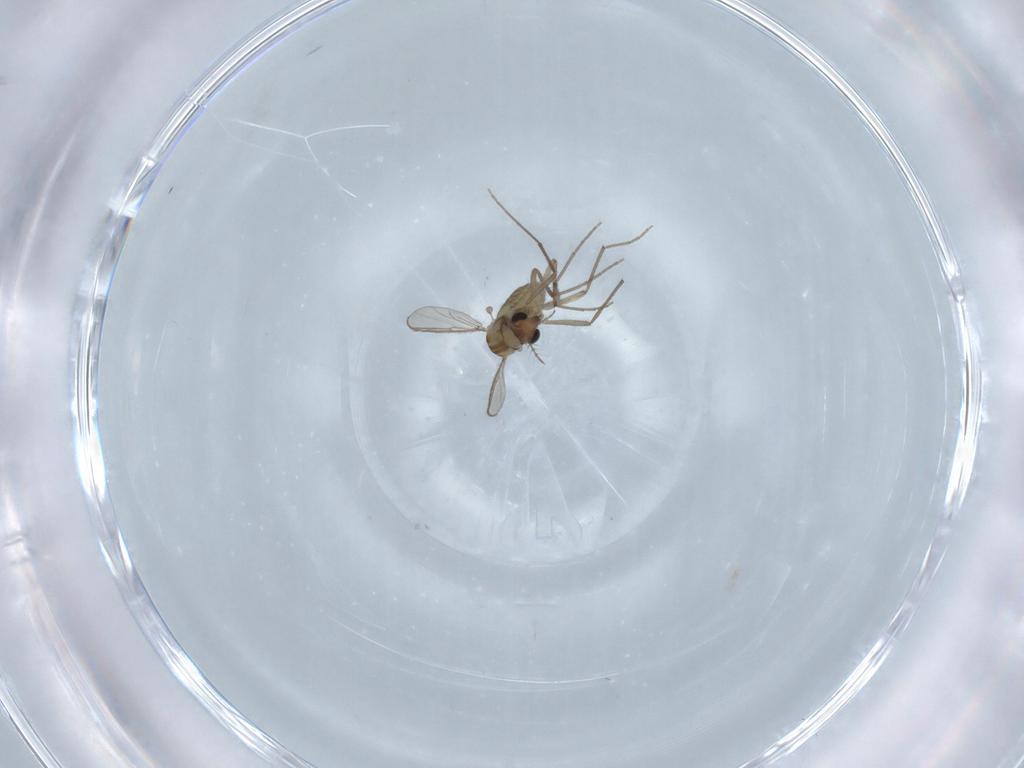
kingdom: Animalia
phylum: Arthropoda
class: Insecta
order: Diptera
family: Chironomidae
